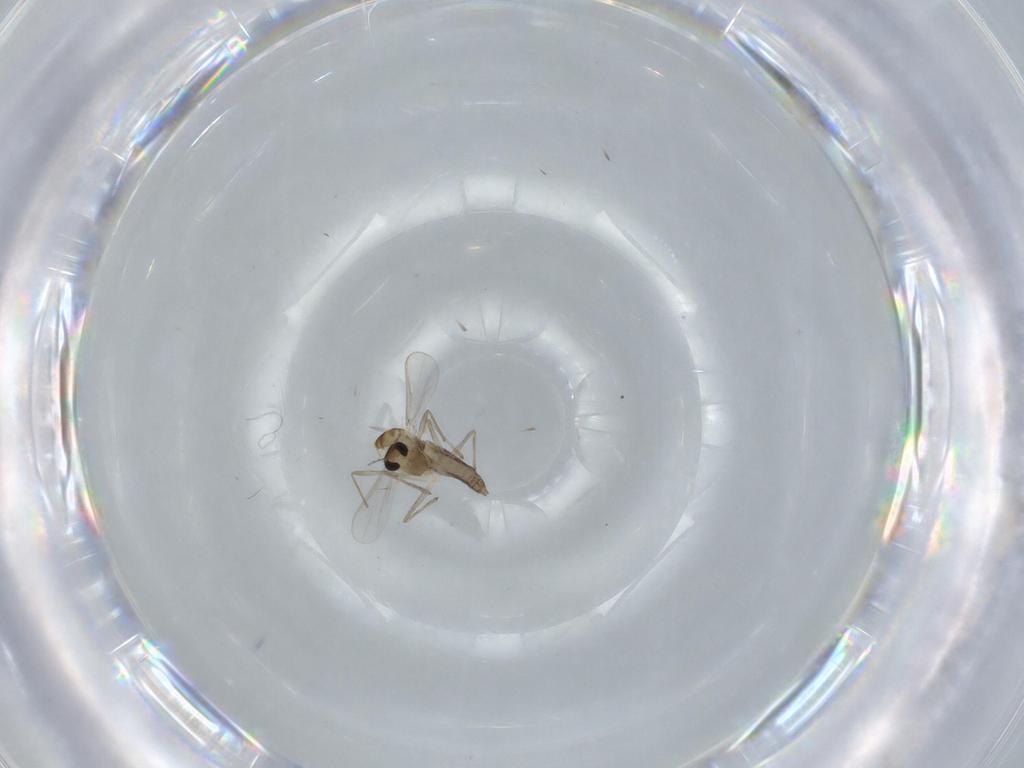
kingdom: Animalia
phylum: Arthropoda
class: Insecta
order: Diptera
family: Chironomidae
